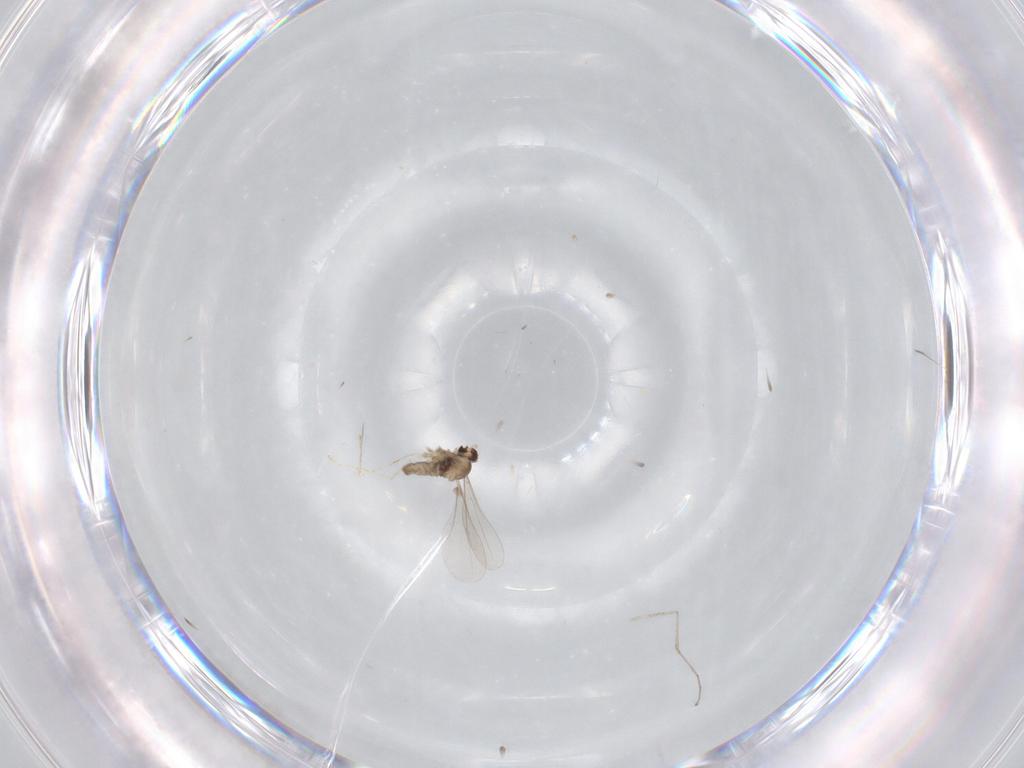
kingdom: Animalia
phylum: Arthropoda
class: Insecta
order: Diptera
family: Cecidomyiidae
